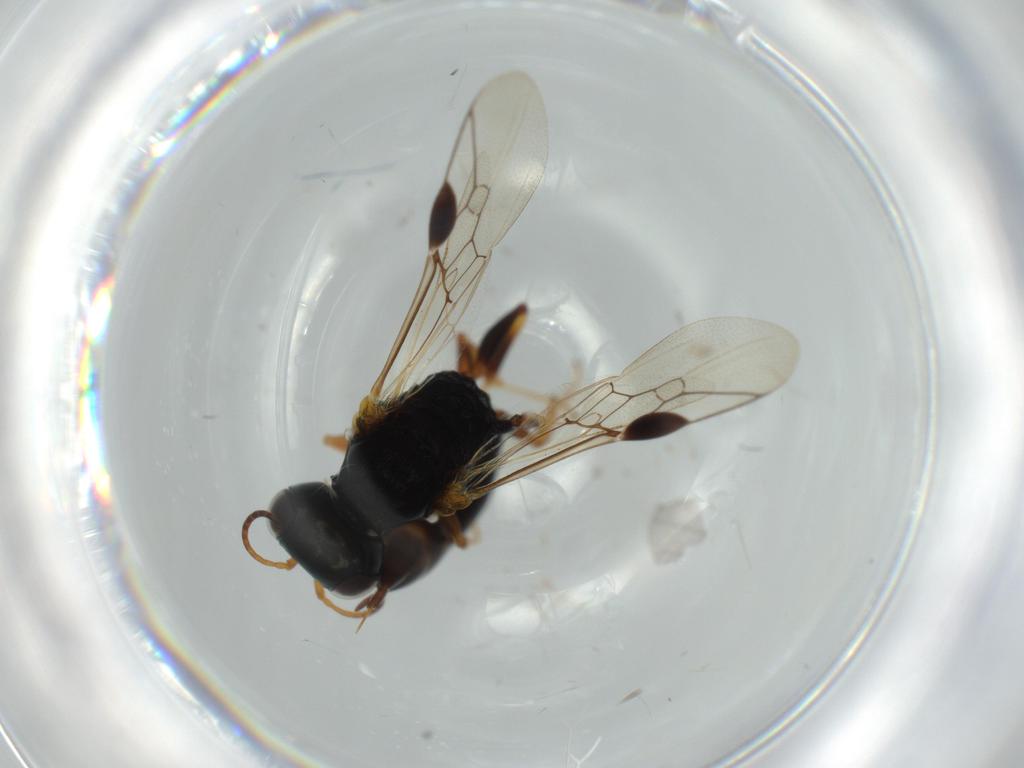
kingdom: Animalia
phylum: Arthropoda
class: Insecta
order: Hymenoptera
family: Crabronidae
